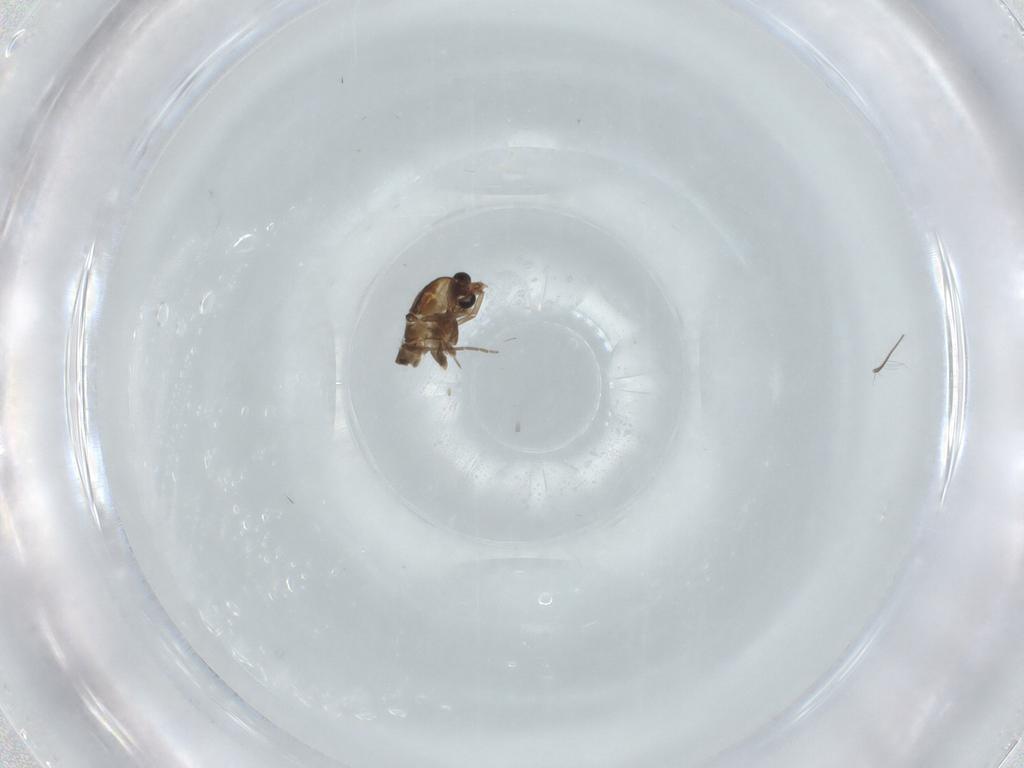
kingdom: Animalia
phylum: Arthropoda
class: Insecta
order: Diptera
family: Chironomidae
